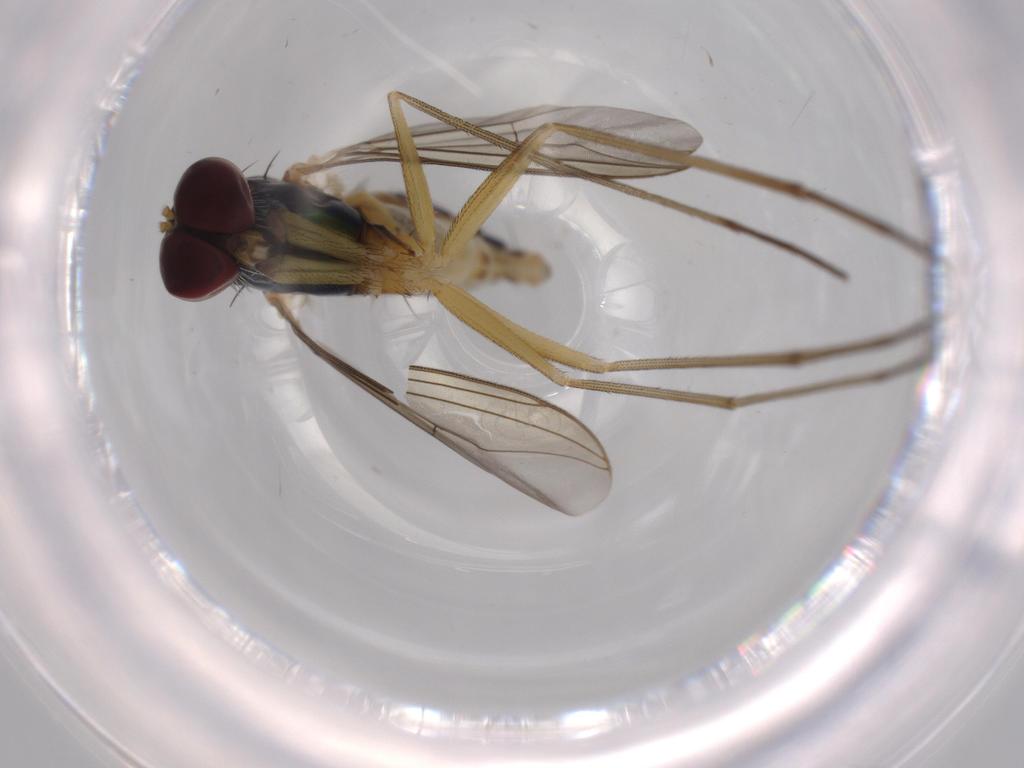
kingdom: Animalia
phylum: Arthropoda
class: Insecta
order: Diptera
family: Dolichopodidae
